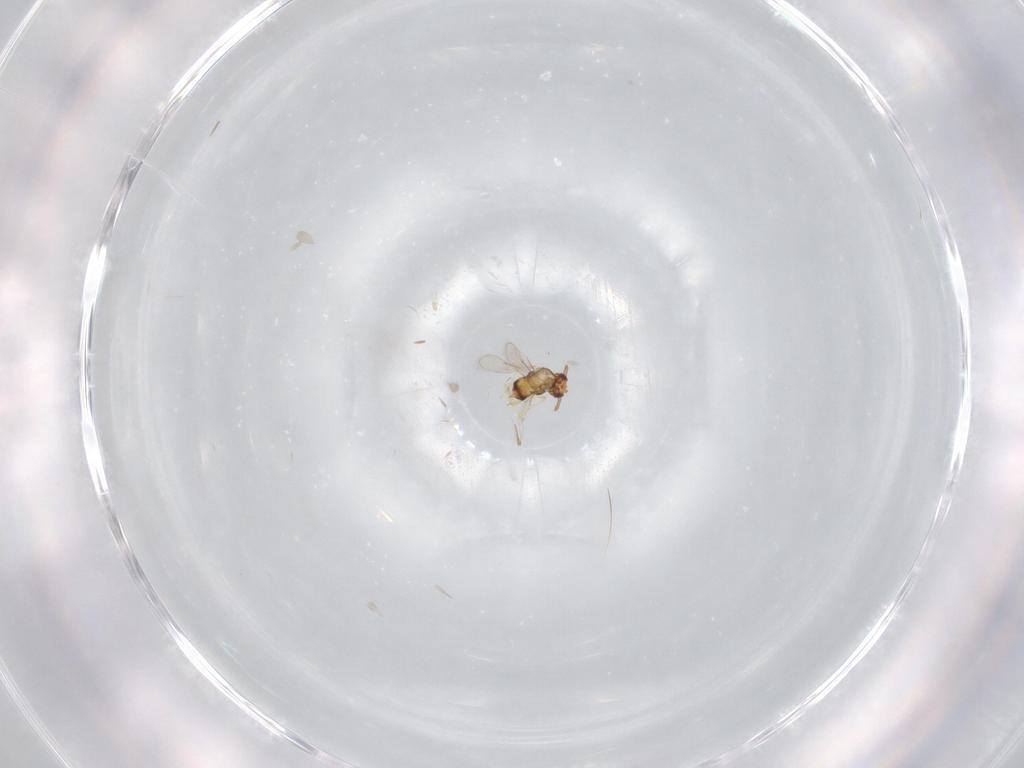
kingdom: Animalia
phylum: Arthropoda
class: Insecta
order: Hymenoptera
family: Aphelinidae
